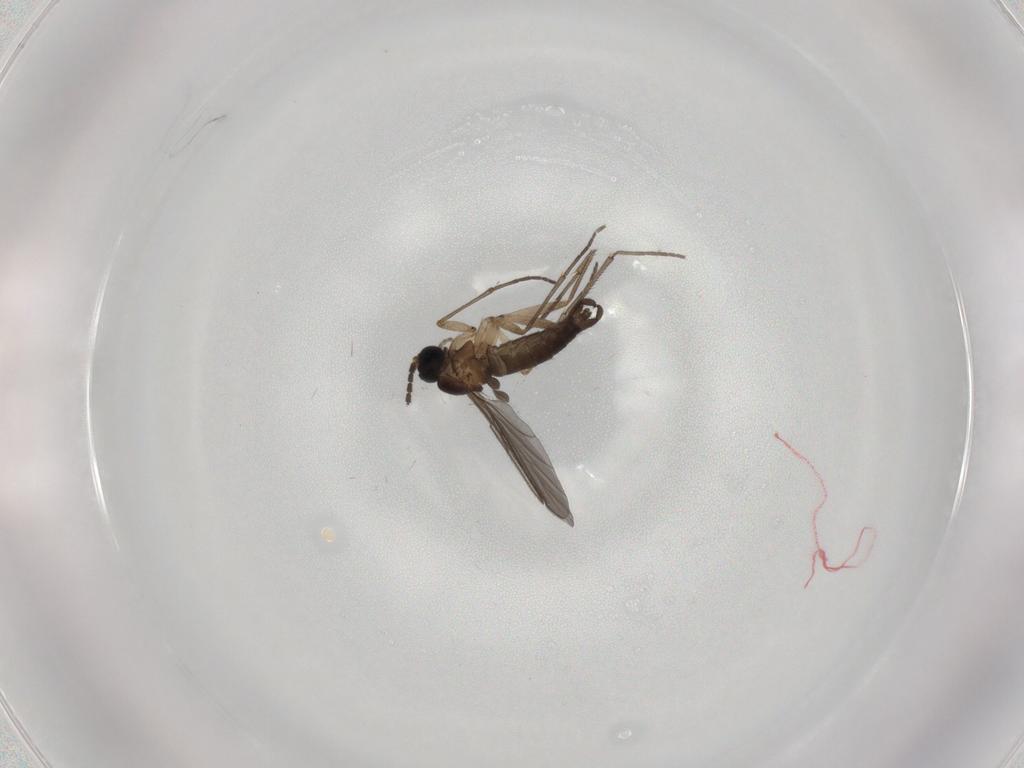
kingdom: Animalia
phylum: Arthropoda
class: Insecta
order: Diptera
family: Sciaridae
